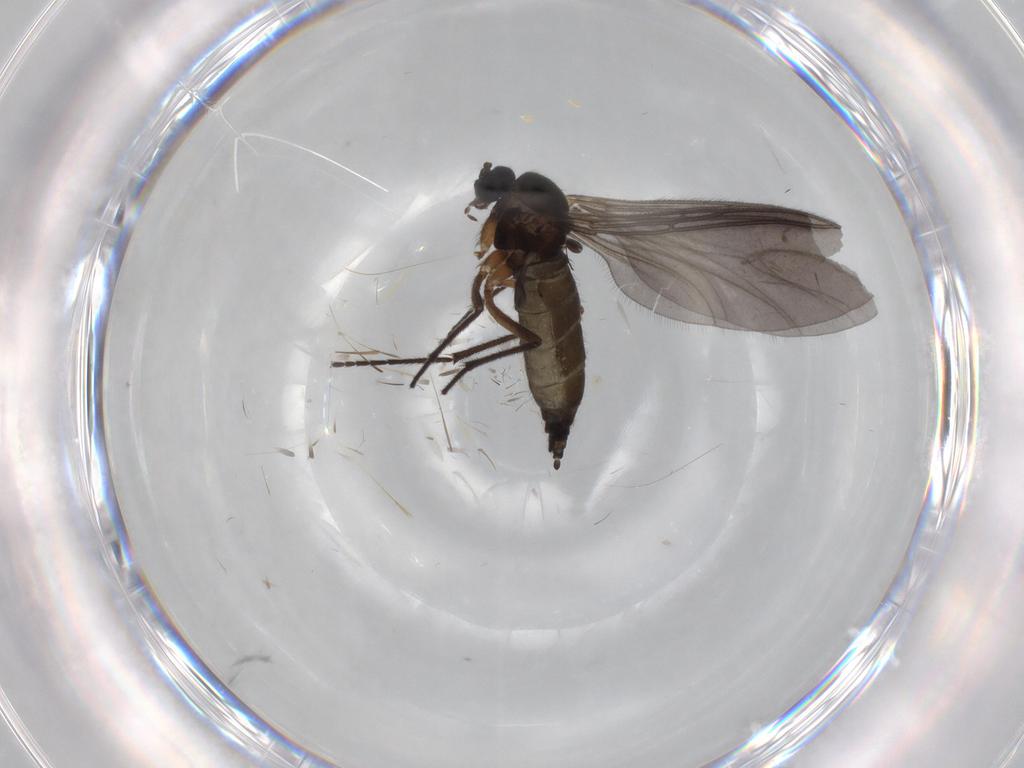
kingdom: Animalia
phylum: Arthropoda
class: Insecta
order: Diptera
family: Sciaridae
